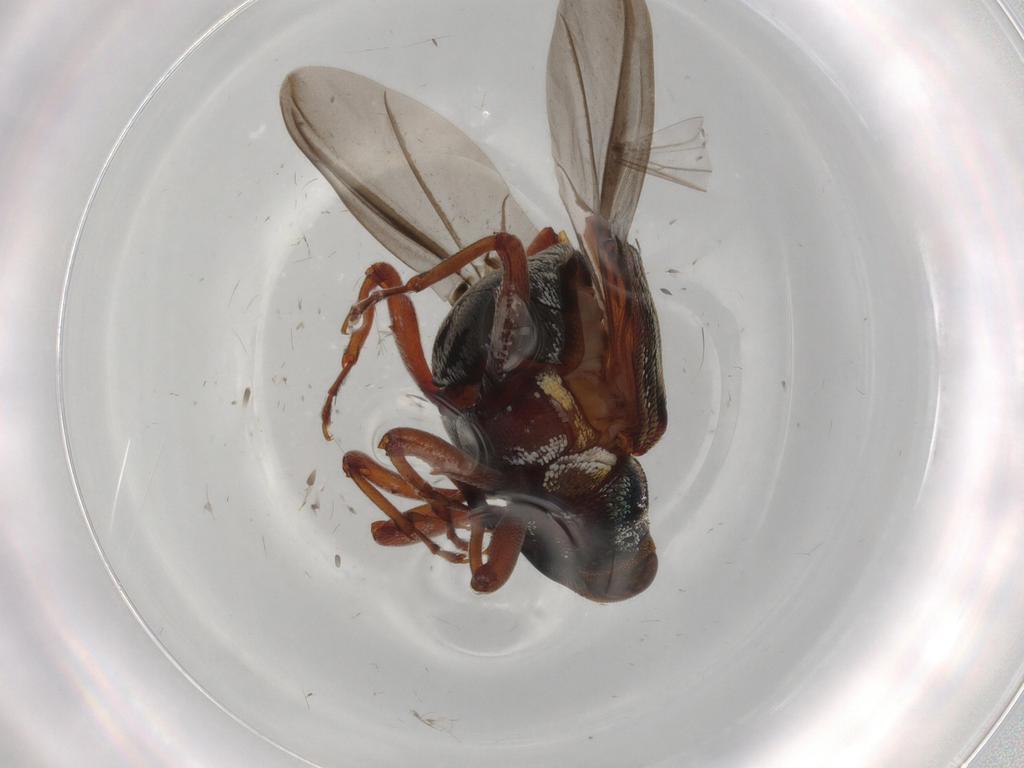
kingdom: Animalia
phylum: Arthropoda
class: Insecta
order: Coleoptera
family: Curculionidae
